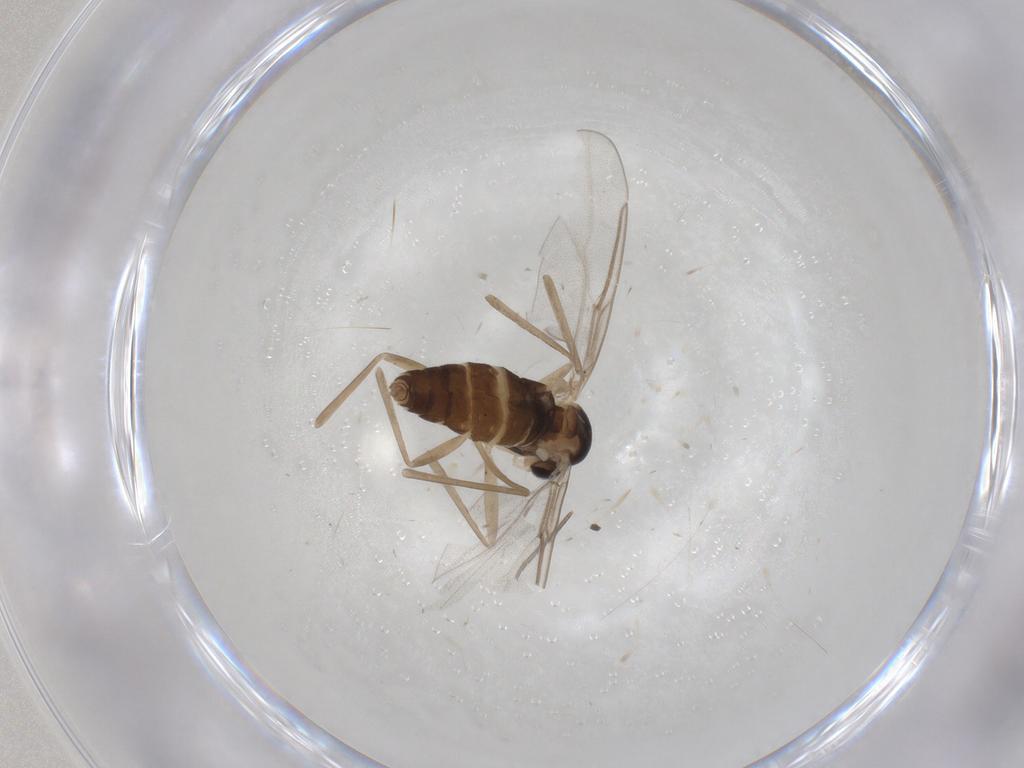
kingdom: Animalia
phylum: Arthropoda
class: Insecta
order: Diptera
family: Cecidomyiidae
